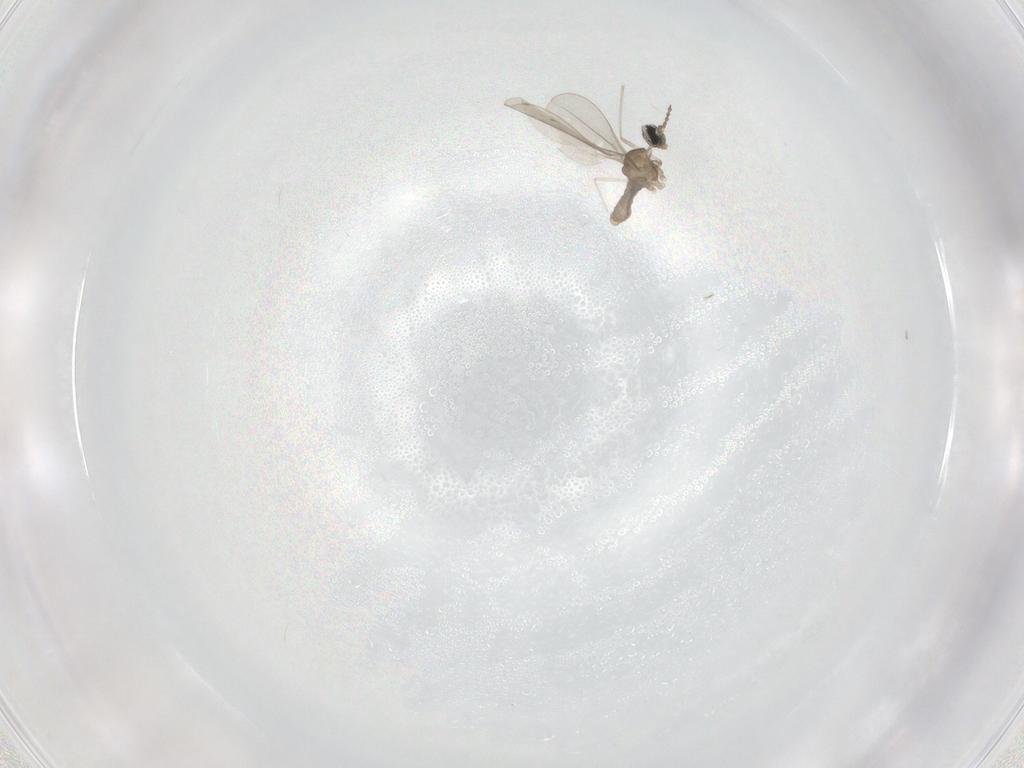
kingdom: Animalia
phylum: Arthropoda
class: Insecta
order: Diptera
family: Cecidomyiidae
